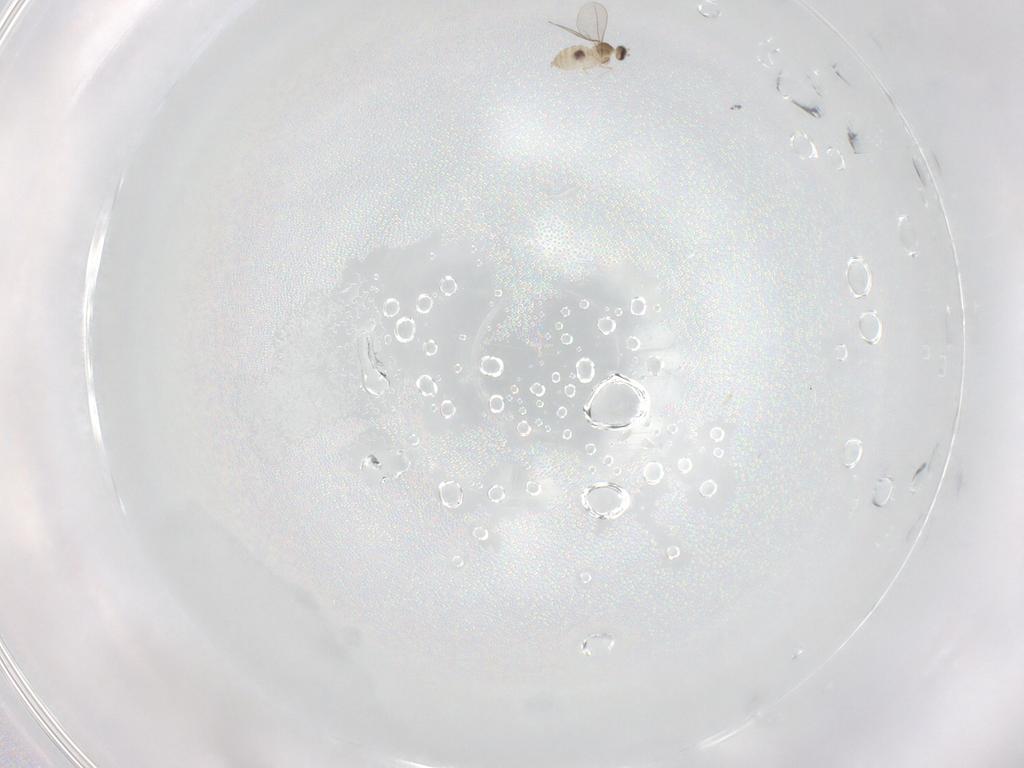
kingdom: Animalia
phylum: Arthropoda
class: Insecta
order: Diptera
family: Cecidomyiidae
